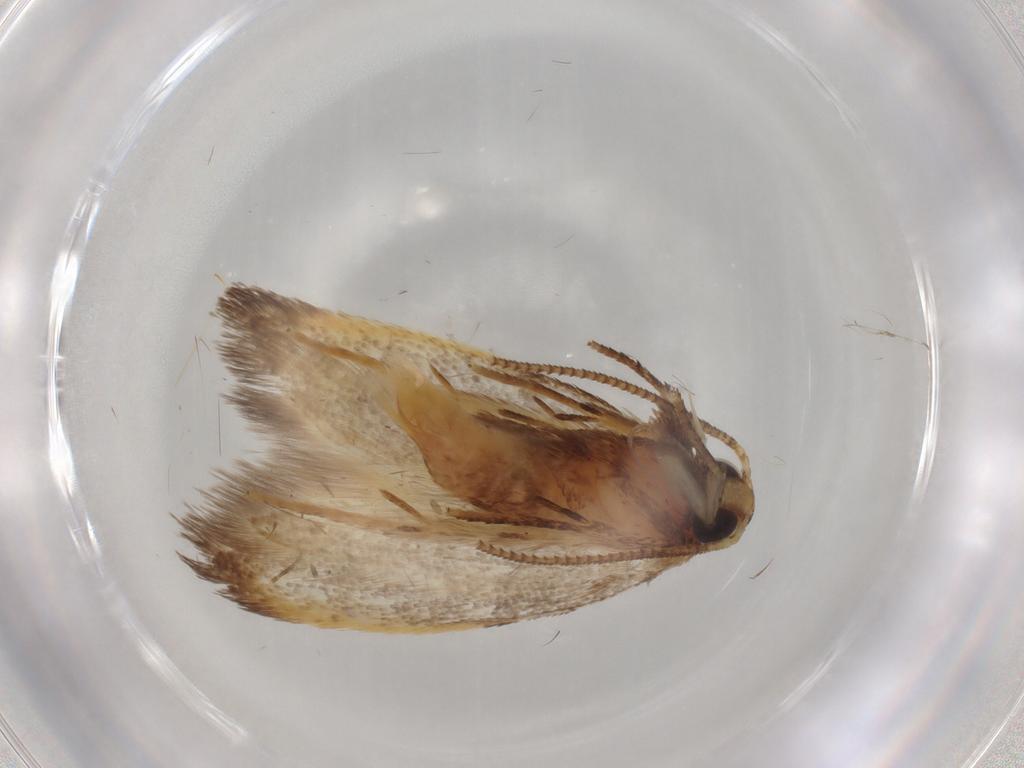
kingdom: Animalia
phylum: Arthropoda
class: Insecta
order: Lepidoptera
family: Oecophoridae
